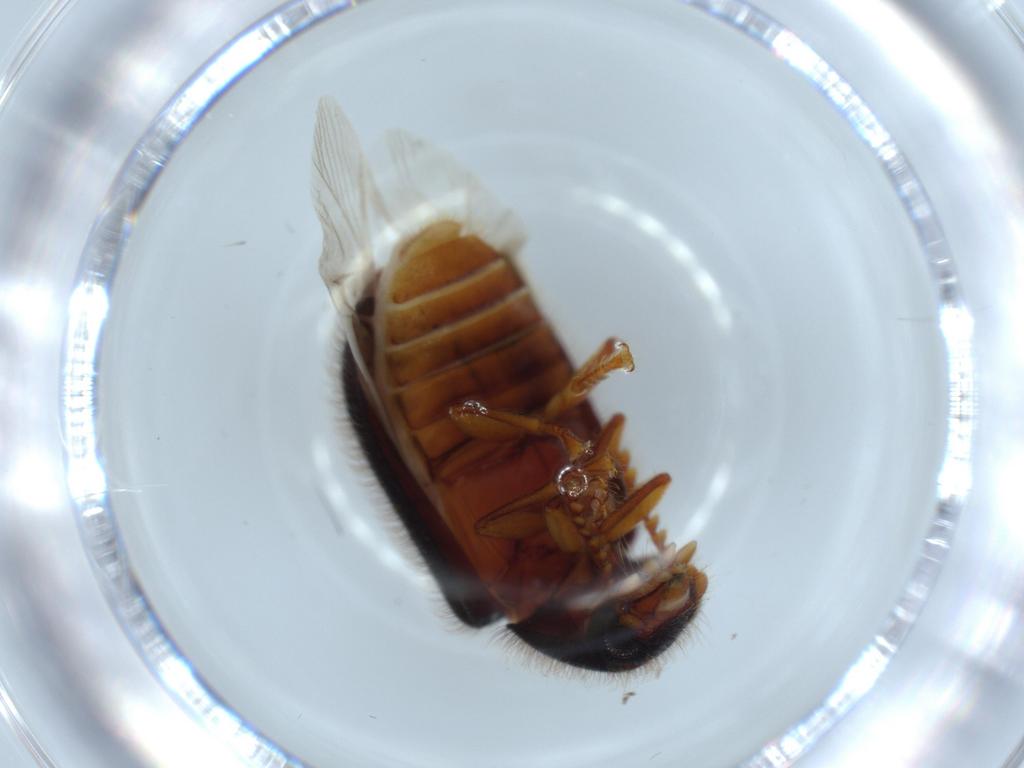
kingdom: Animalia
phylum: Arthropoda
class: Insecta
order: Coleoptera
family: Rhadalidae
